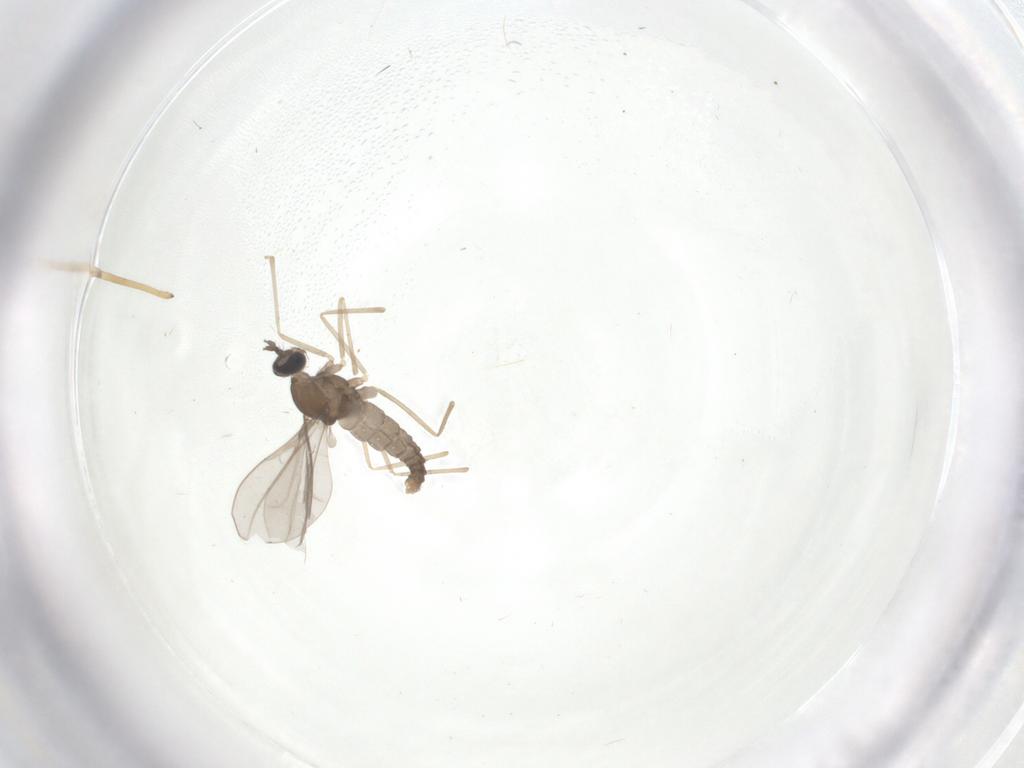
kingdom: Animalia
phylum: Arthropoda
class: Insecta
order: Diptera
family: Cecidomyiidae
